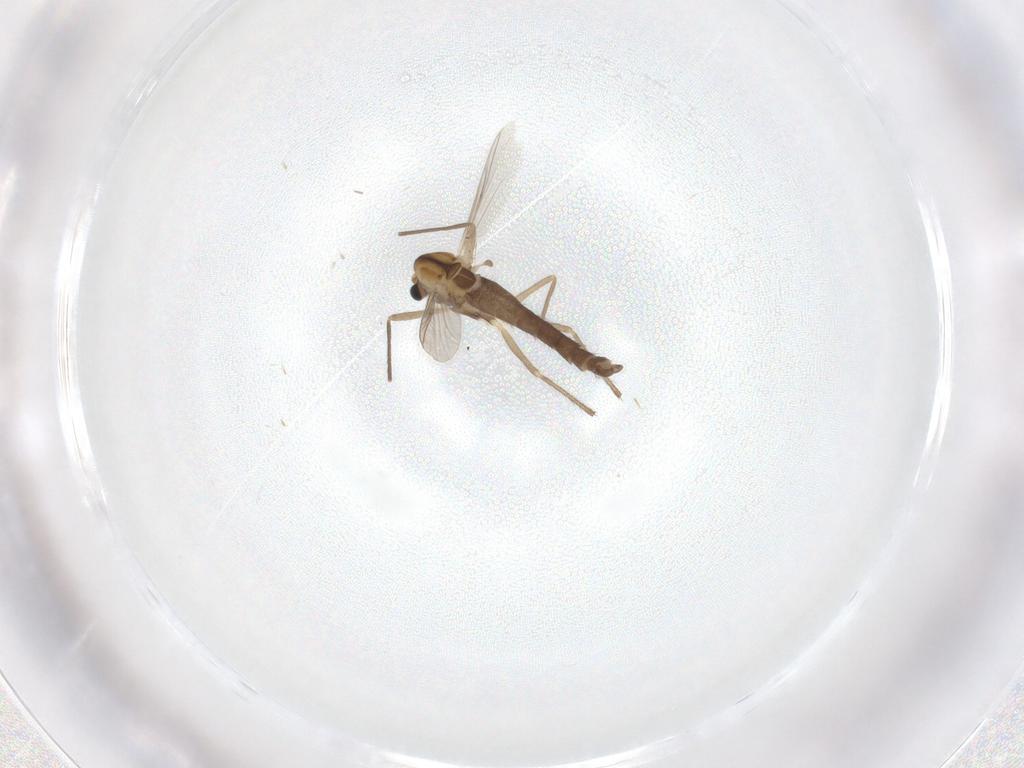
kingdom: Animalia
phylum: Arthropoda
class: Insecta
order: Diptera
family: Chironomidae
